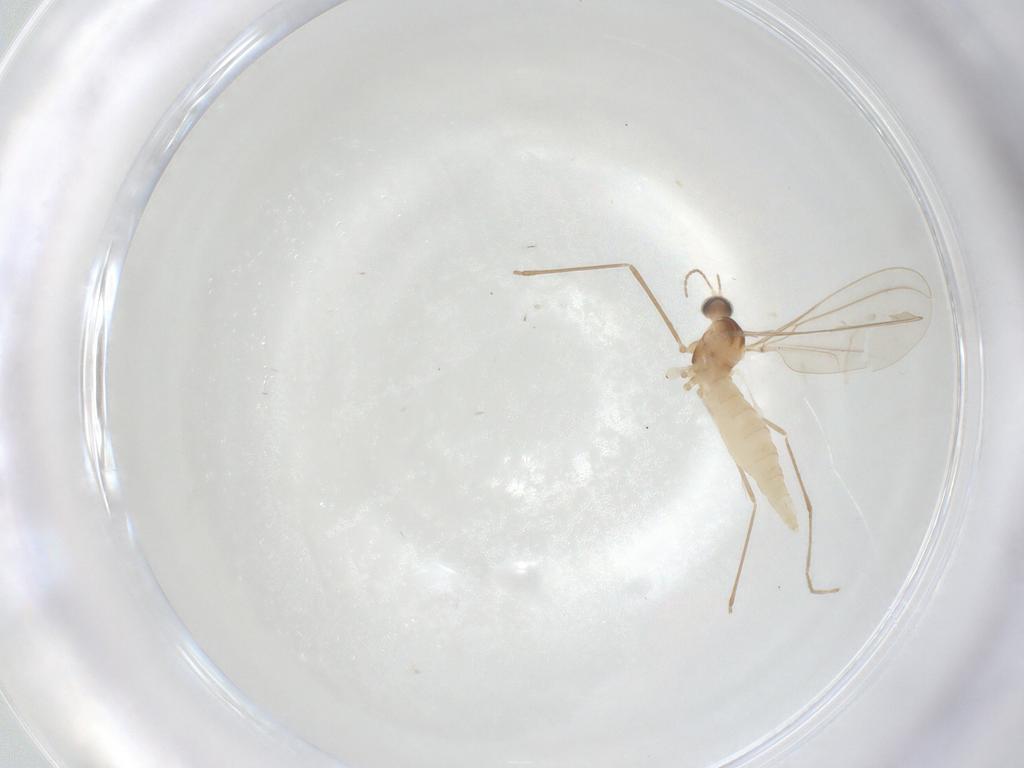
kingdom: Animalia
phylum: Arthropoda
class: Insecta
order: Diptera
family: Cecidomyiidae
